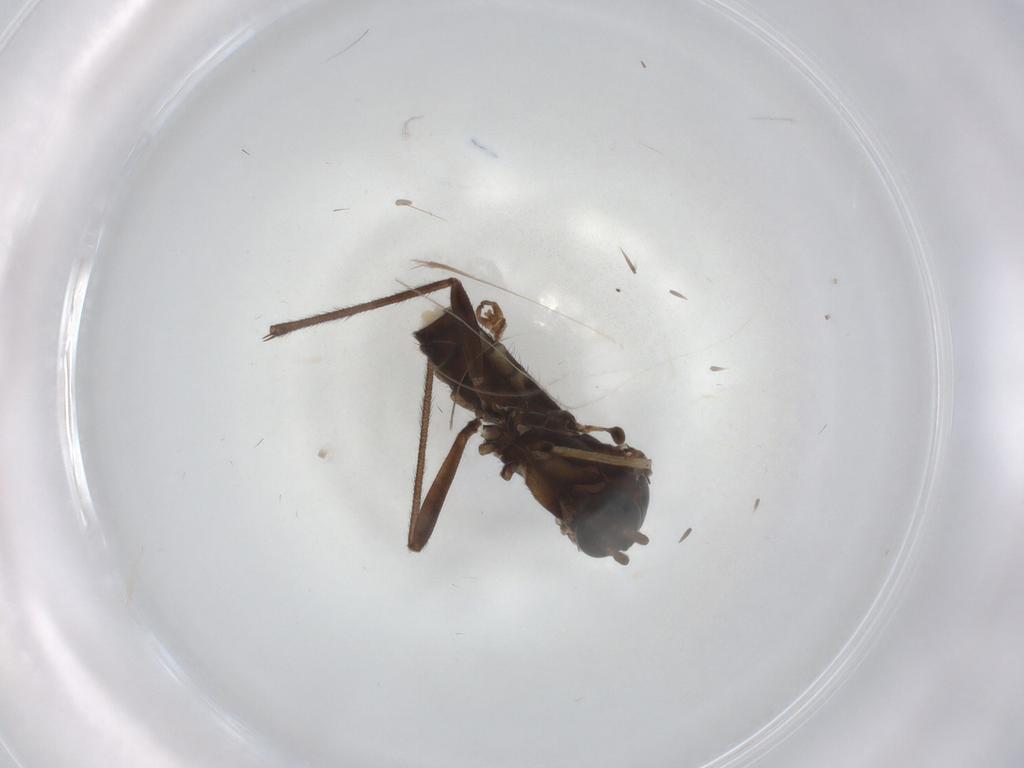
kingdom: Animalia
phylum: Arthropoda
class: Insecta
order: Diptera
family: Sciaridae
